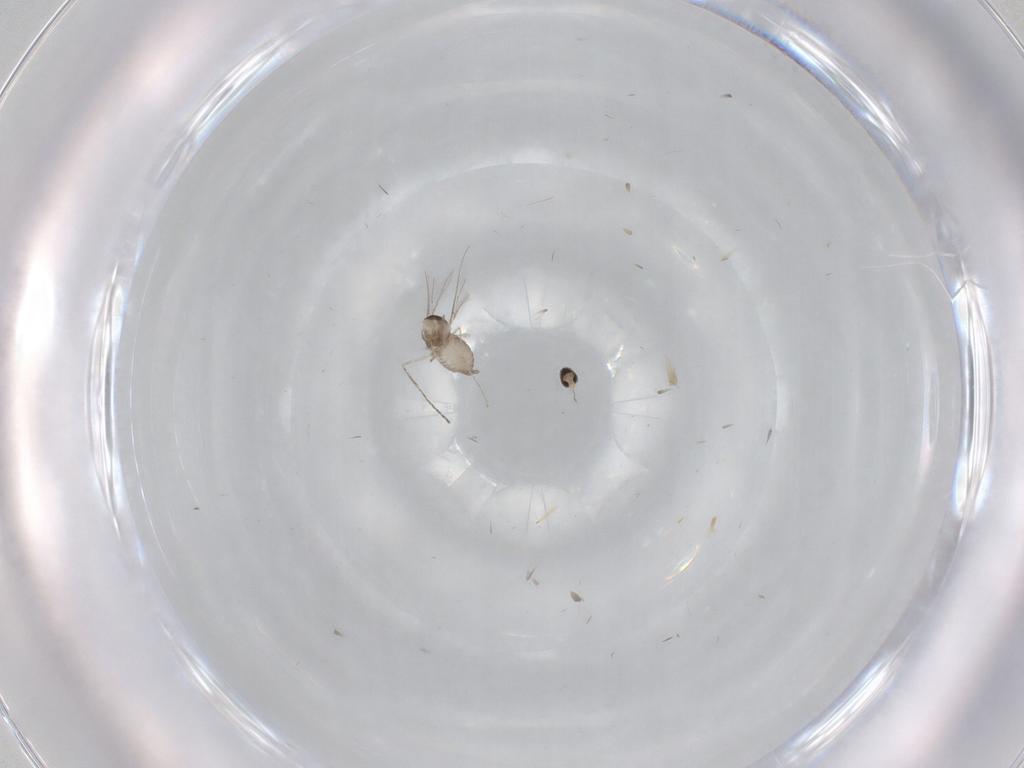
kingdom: Animalia
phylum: Arthropoda
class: Insecta
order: Diptera
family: Cecidomyiidae
